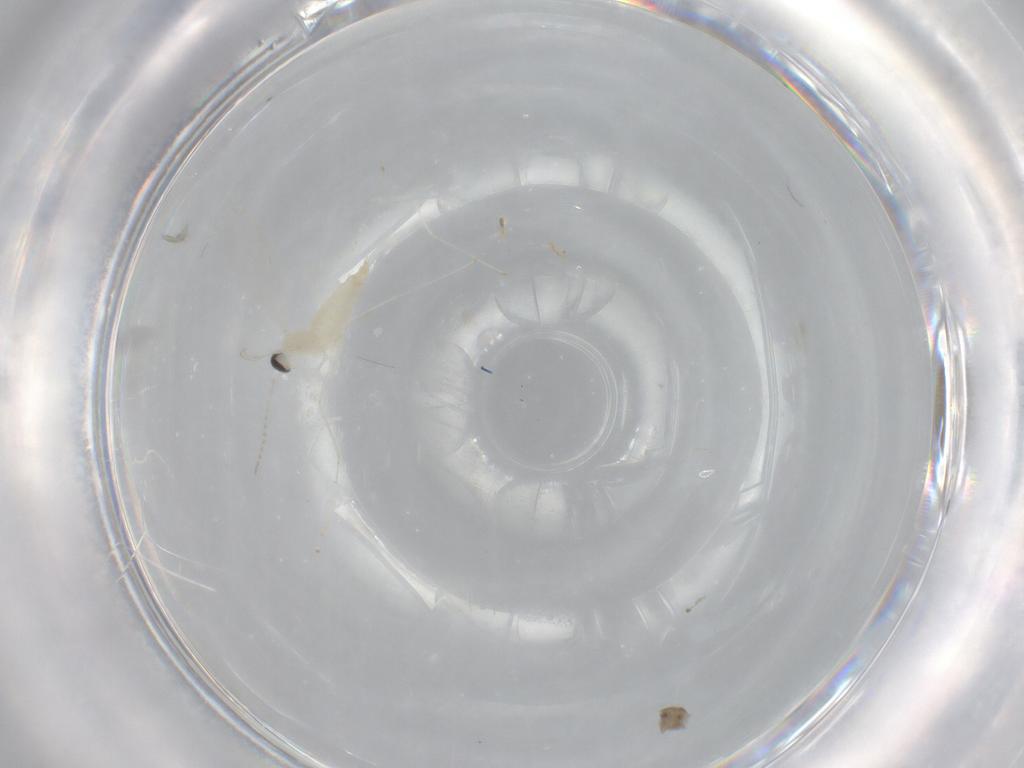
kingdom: Animalia
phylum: Arthropoda
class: Insecta
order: Diptera
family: Cecidomyiidae
